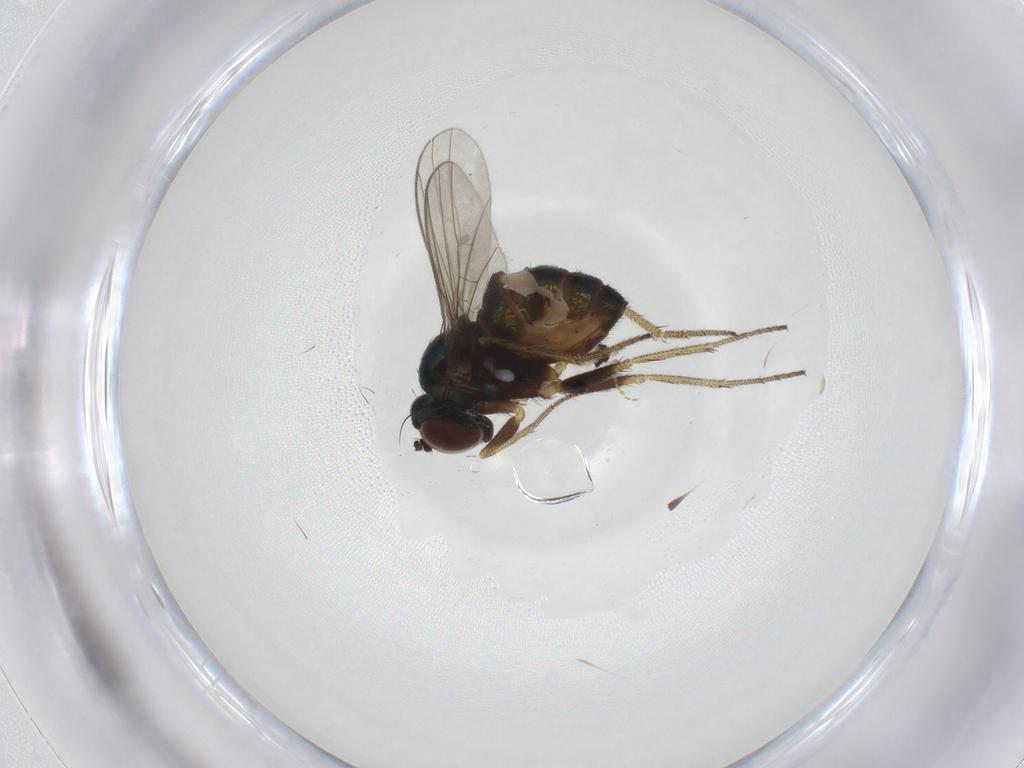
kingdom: Animalia
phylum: Arthropoda
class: Insecta
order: Diptera
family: Cecidomyiidae
